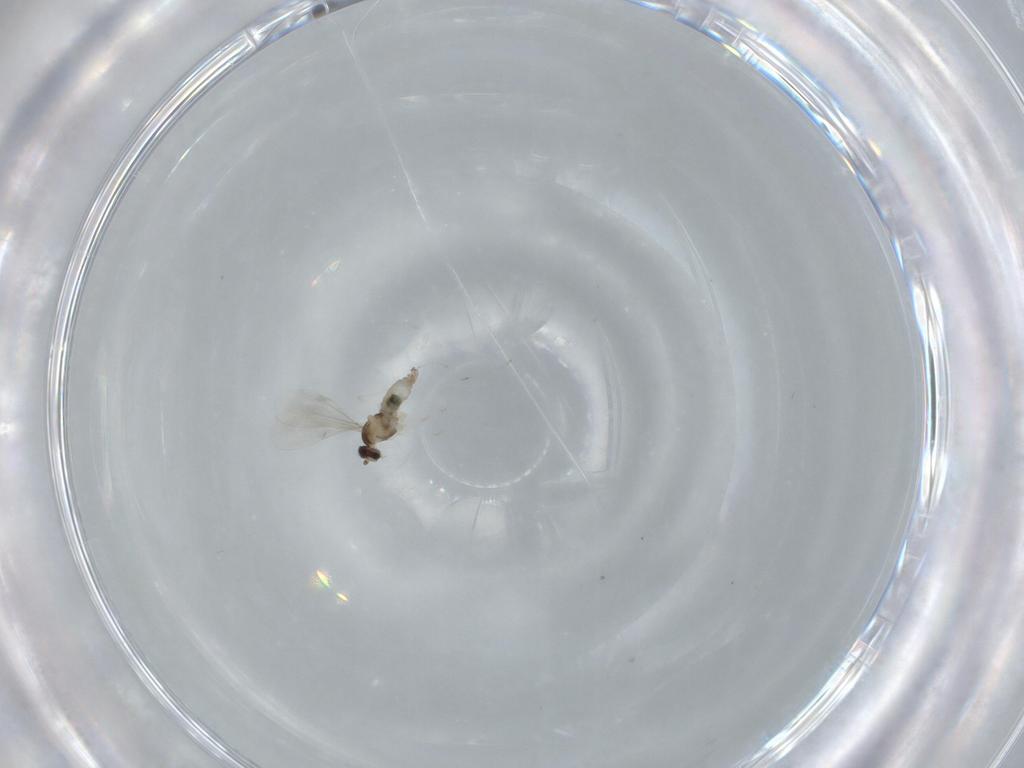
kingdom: Animalia
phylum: Arthropoda
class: Insecta
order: Diptera
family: Cecidomyiidae
